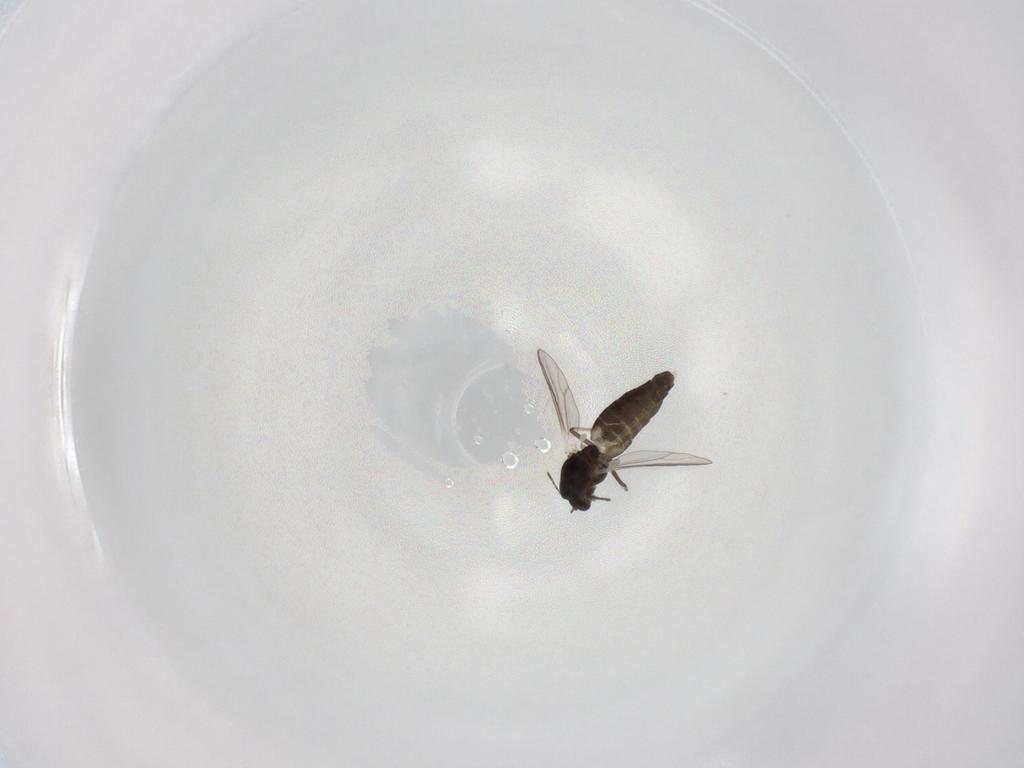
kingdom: Animalia
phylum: Arthropoda
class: Insecta
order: Diptera
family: Chironomidae
